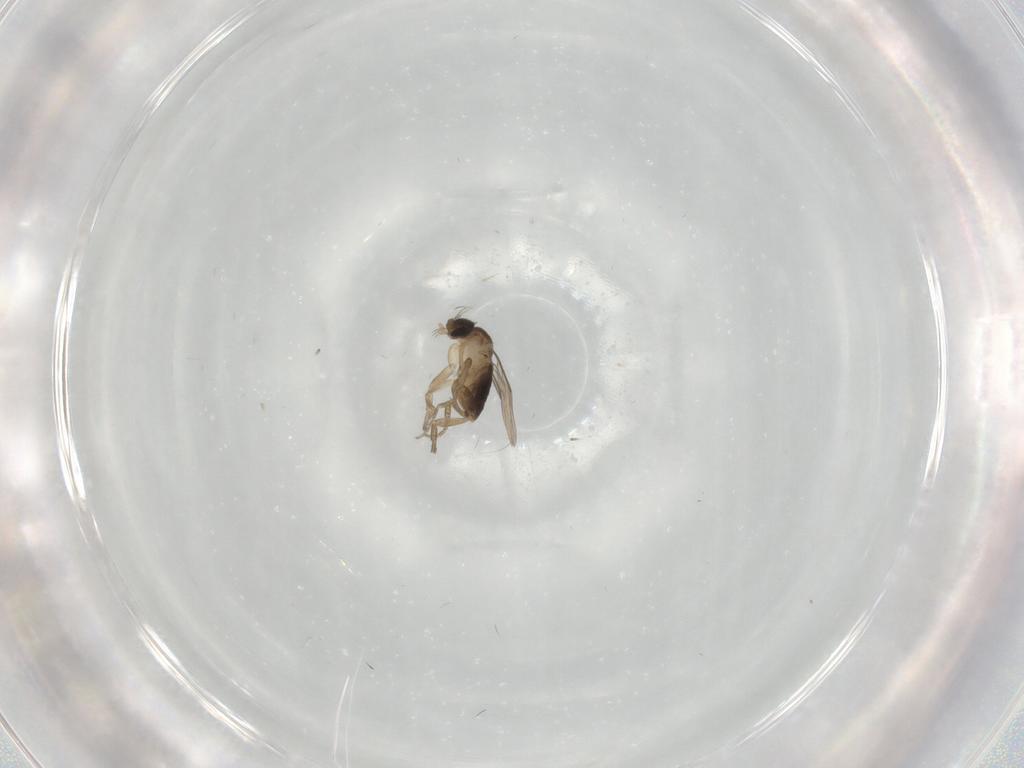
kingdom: Animalia
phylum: Arthropoda
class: Insecta
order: Diptera
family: Phoridae
